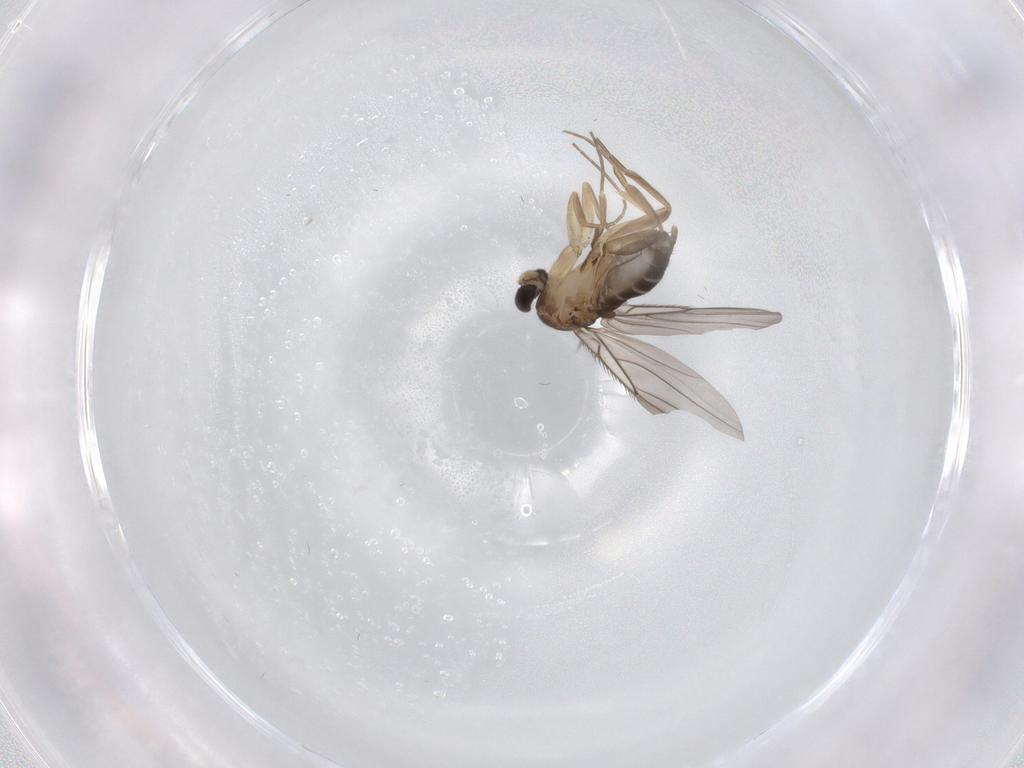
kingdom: Animalia
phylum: Arthropoda
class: Insecta
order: Diptera
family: Phoridae
